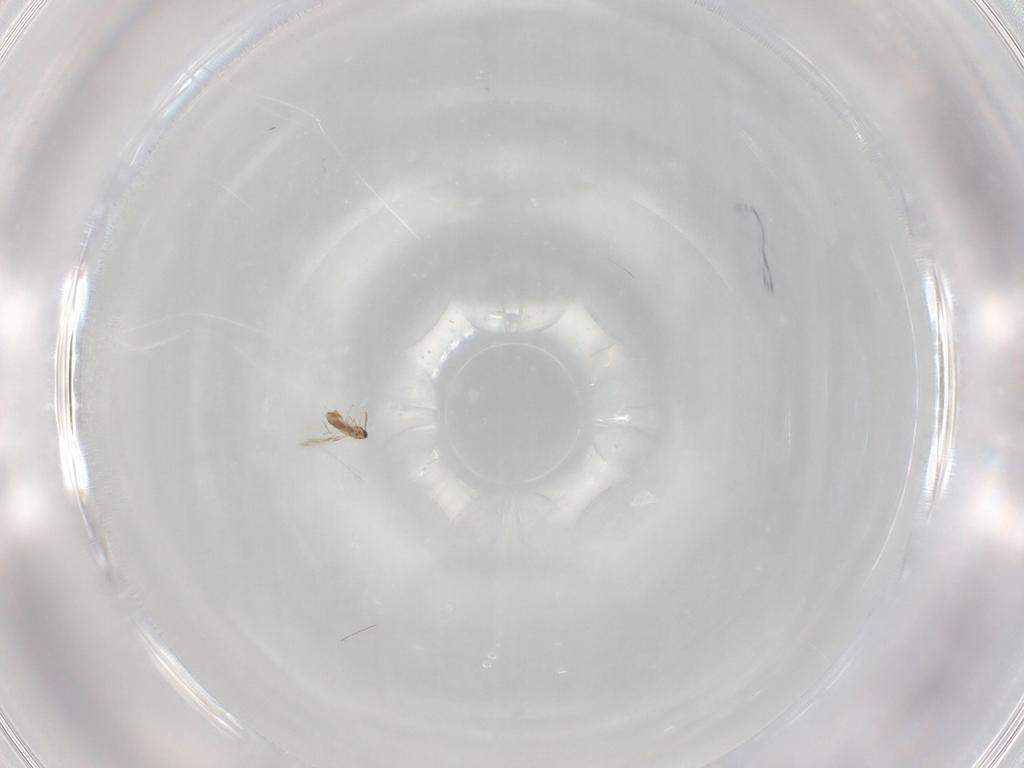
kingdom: Animalia
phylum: Arthropoda
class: Insecta
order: Hymenoptera
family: Aphelinidae
